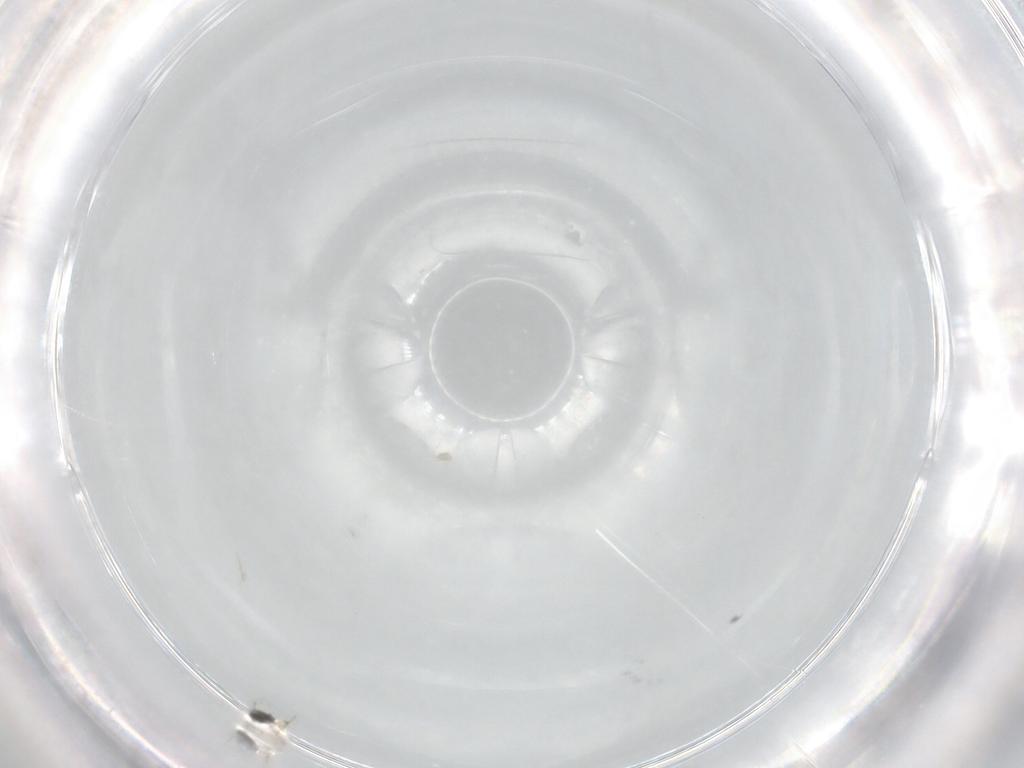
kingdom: Animalia
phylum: Arthropoda
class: Insecta
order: Hymenoptera
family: Mymaridae
